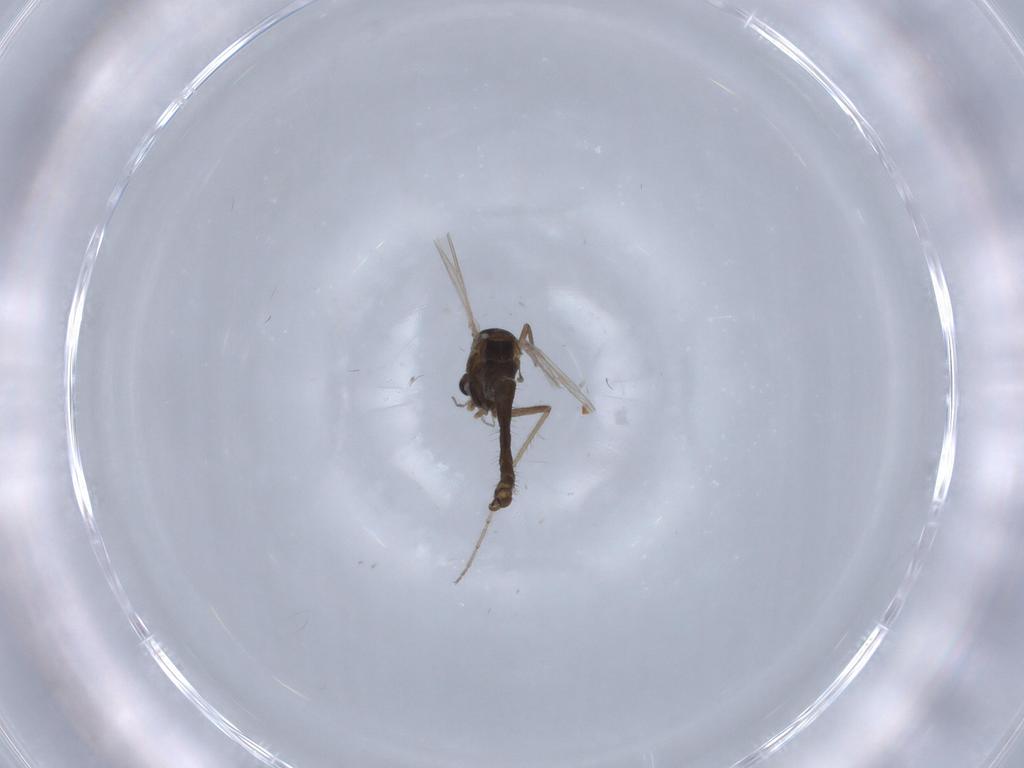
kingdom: Animalia
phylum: Arthropoda
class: Insecta
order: Diptera
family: Chironomidae
